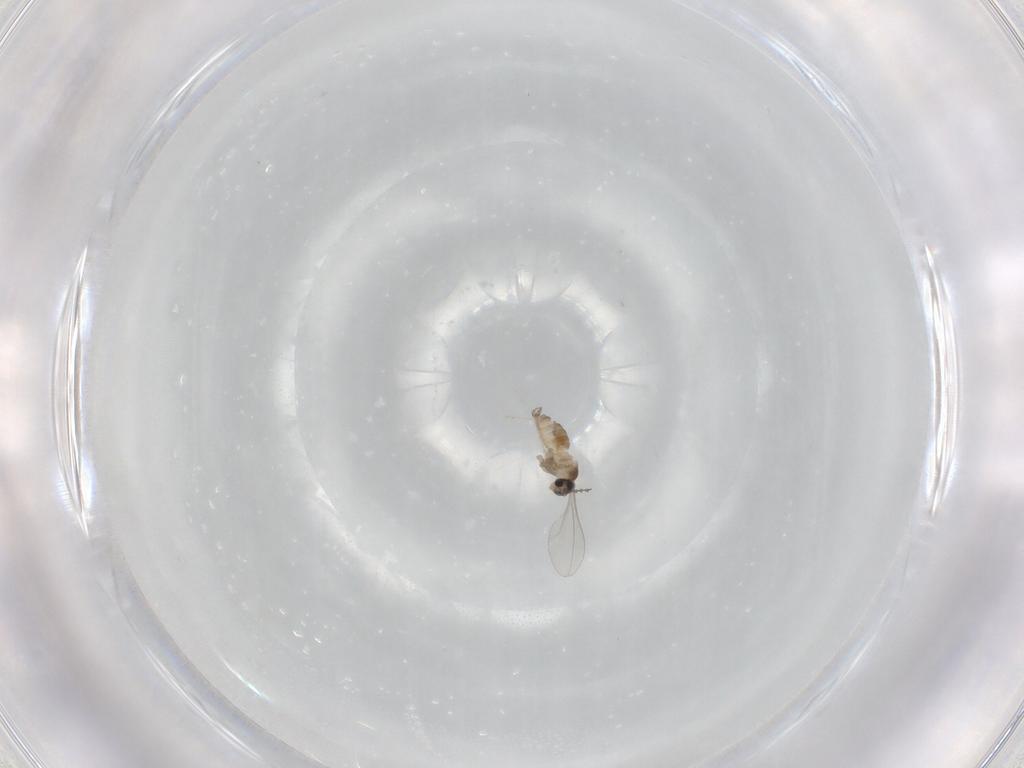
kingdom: Animalia
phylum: Arthropoda
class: Insecta
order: Diptera
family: Cecidomyiidae
